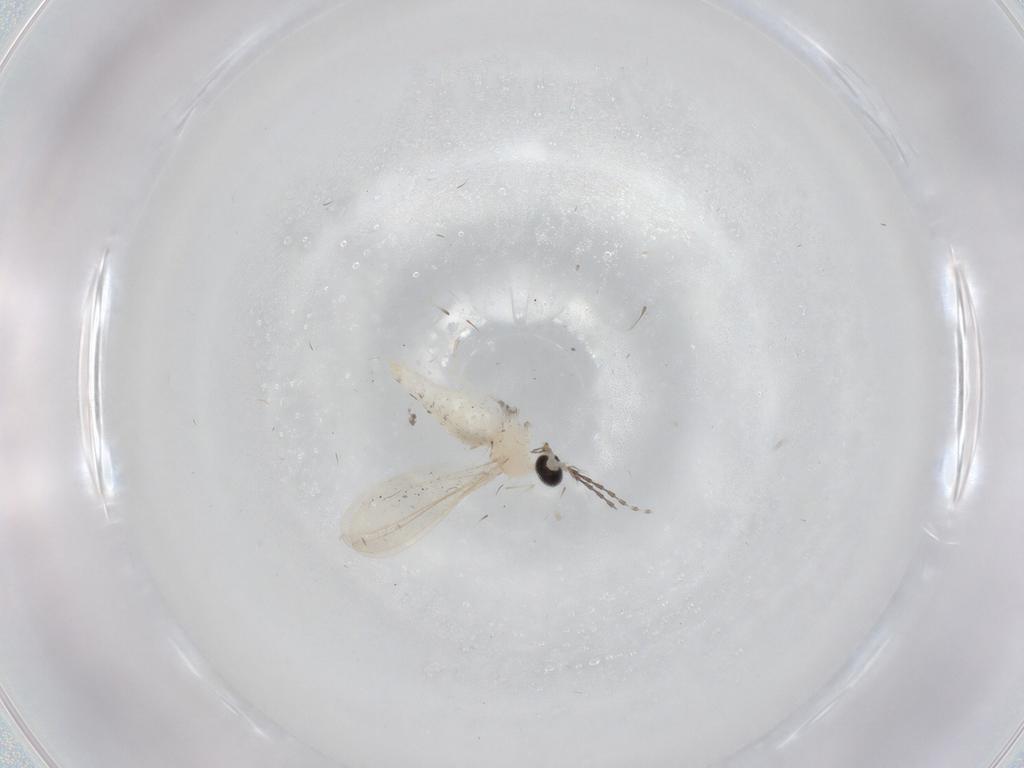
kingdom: Animalia
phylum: Arthropoda
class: Insecta
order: Diptera
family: Cecidomyiidae
